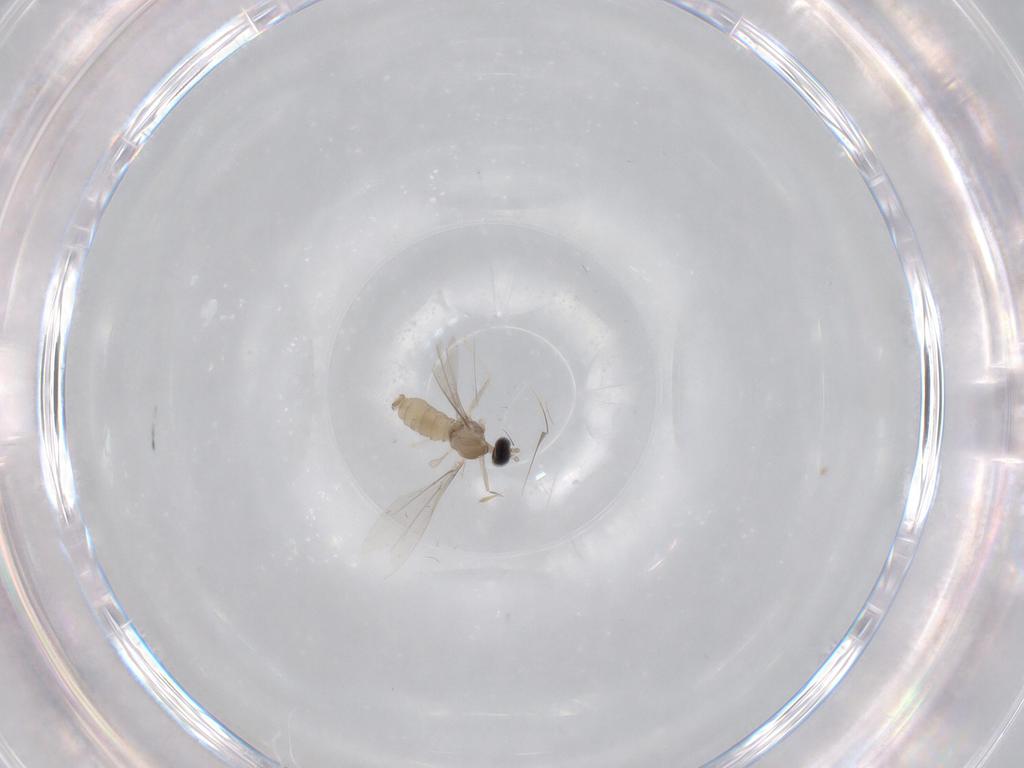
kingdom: Animalia
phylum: Arthropoda
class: Insecta
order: Diptera
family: Cecidomyiidae
